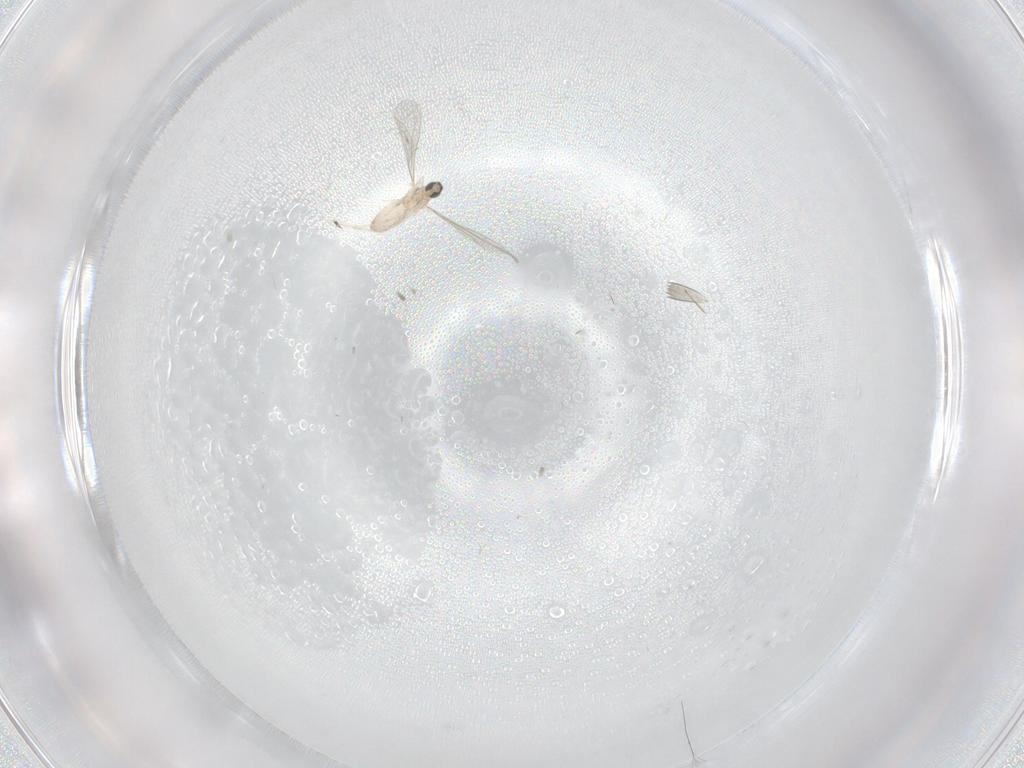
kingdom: Animalia
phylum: Arthropoda
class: Insecta
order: Diptera
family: Cecidomyiidae
